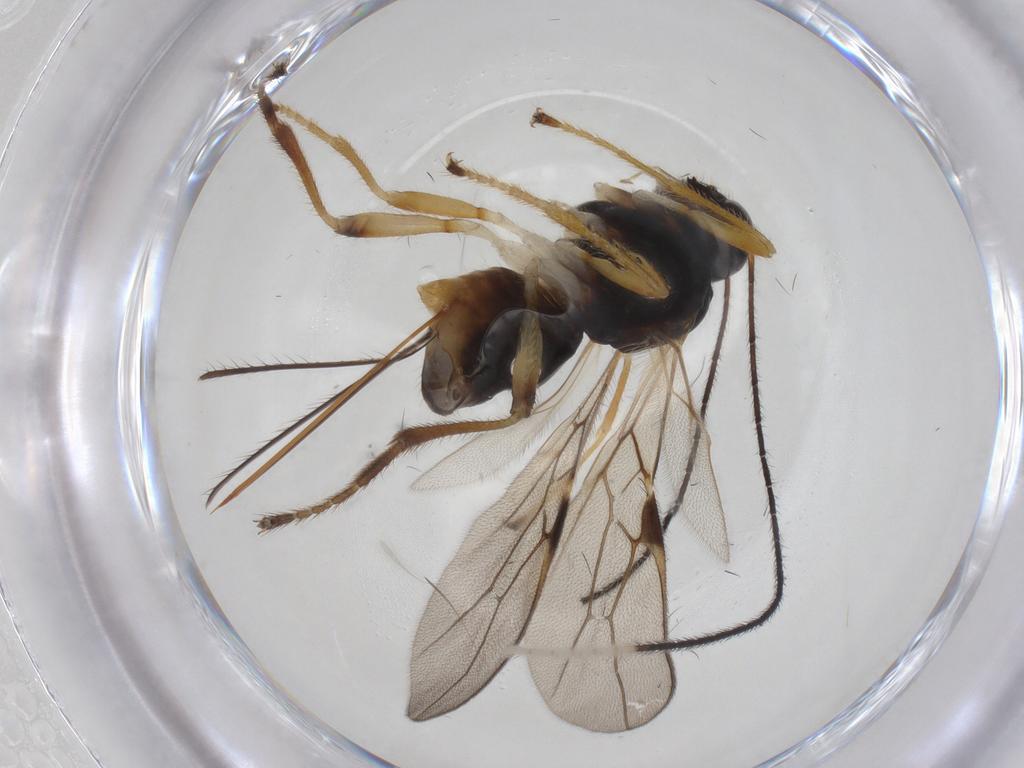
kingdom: Animalia
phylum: Arthropoda
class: Insecta
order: Hymenoptera
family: Braconidae
